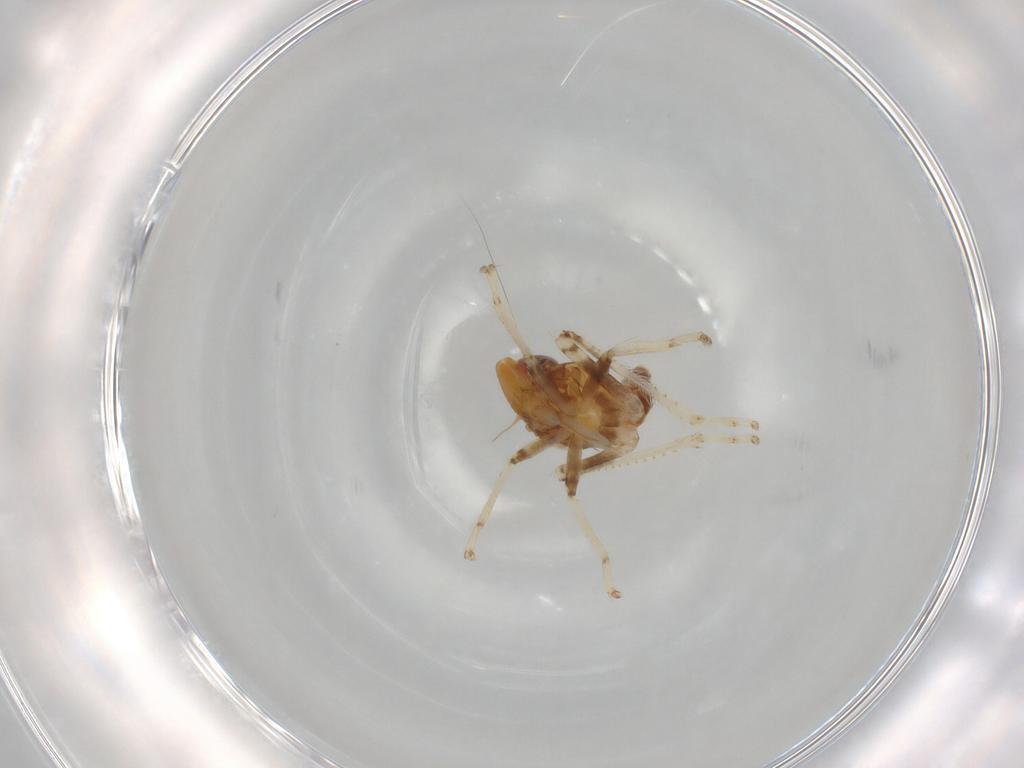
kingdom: Animalia
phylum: Arthropoda
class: Insecta
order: Hemiptera
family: Cicadellidae
